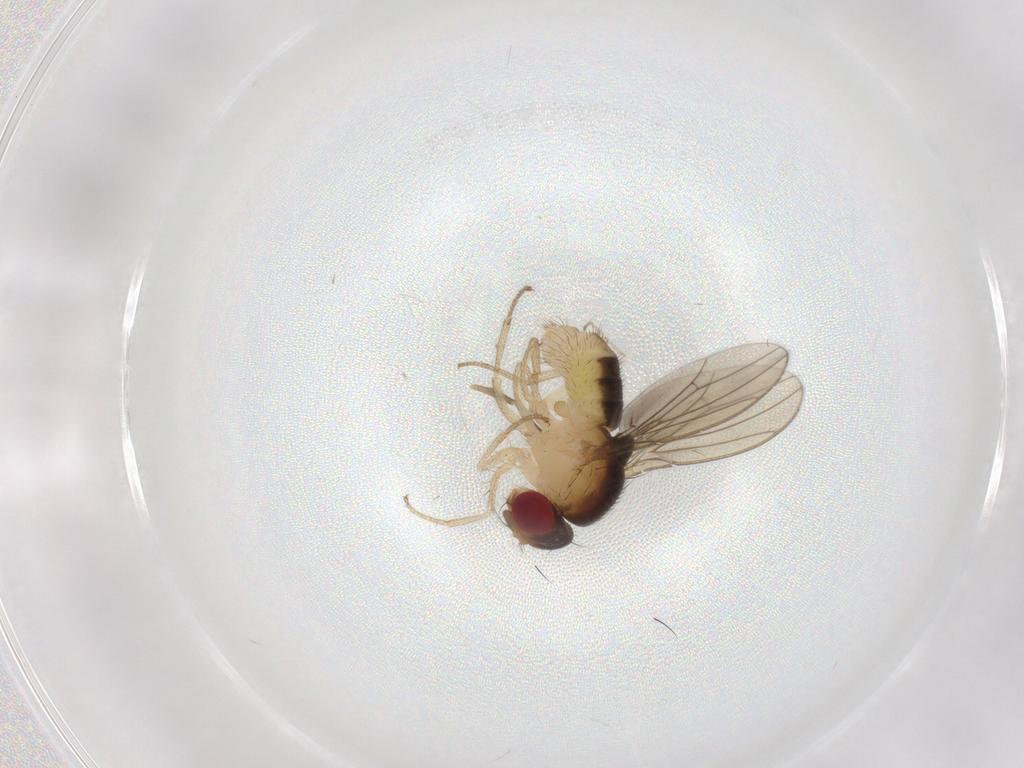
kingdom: Animalia
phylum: Arthropoda
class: Insecta
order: Diptera
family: Drosophilidae
